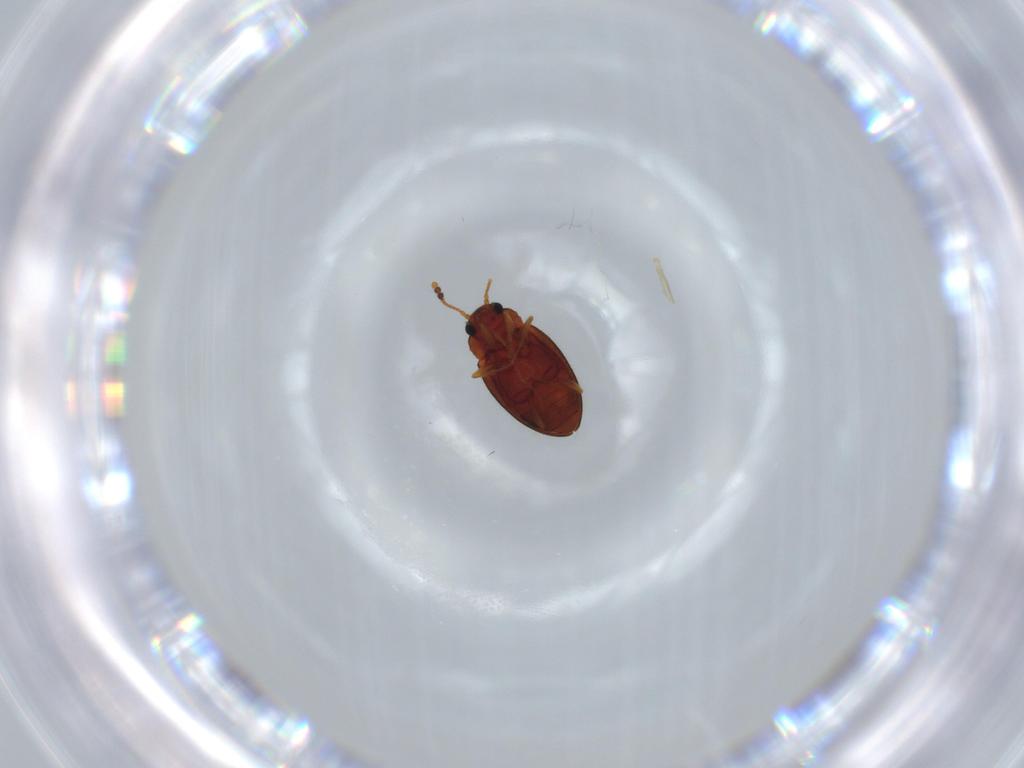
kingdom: Animalia
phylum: Arthropoda
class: Insecta
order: Coleoptera
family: Erotylidae
